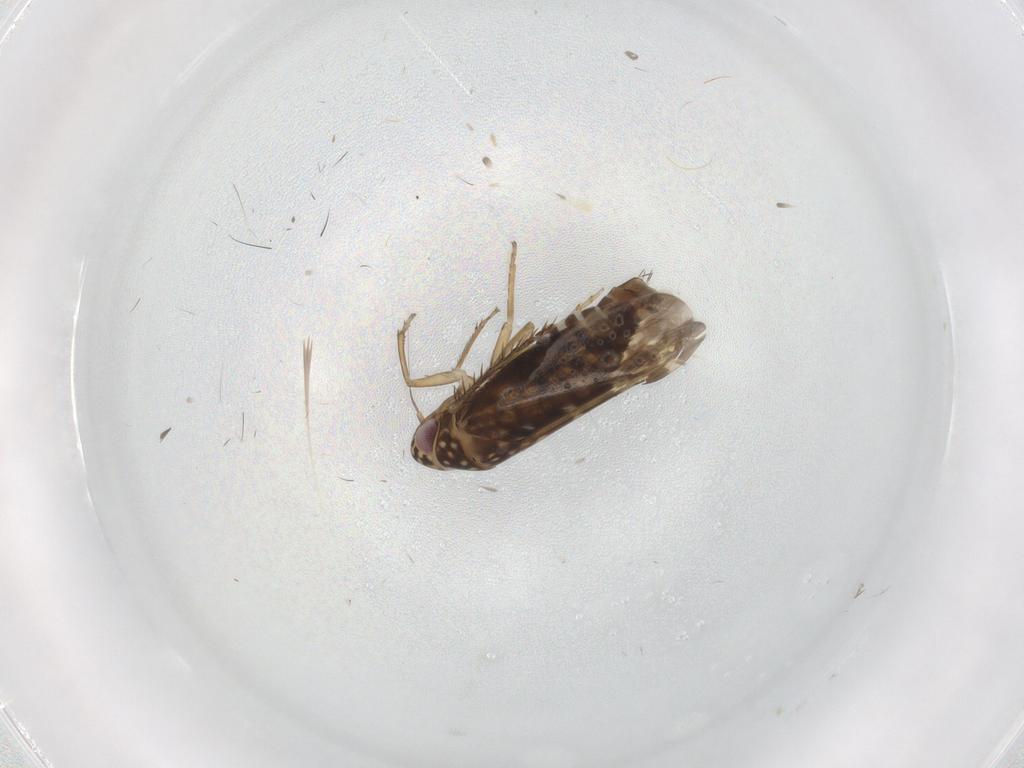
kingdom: Animalia
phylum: Arthropoda
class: Insecta
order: Hemiptera
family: Cicadellidae
